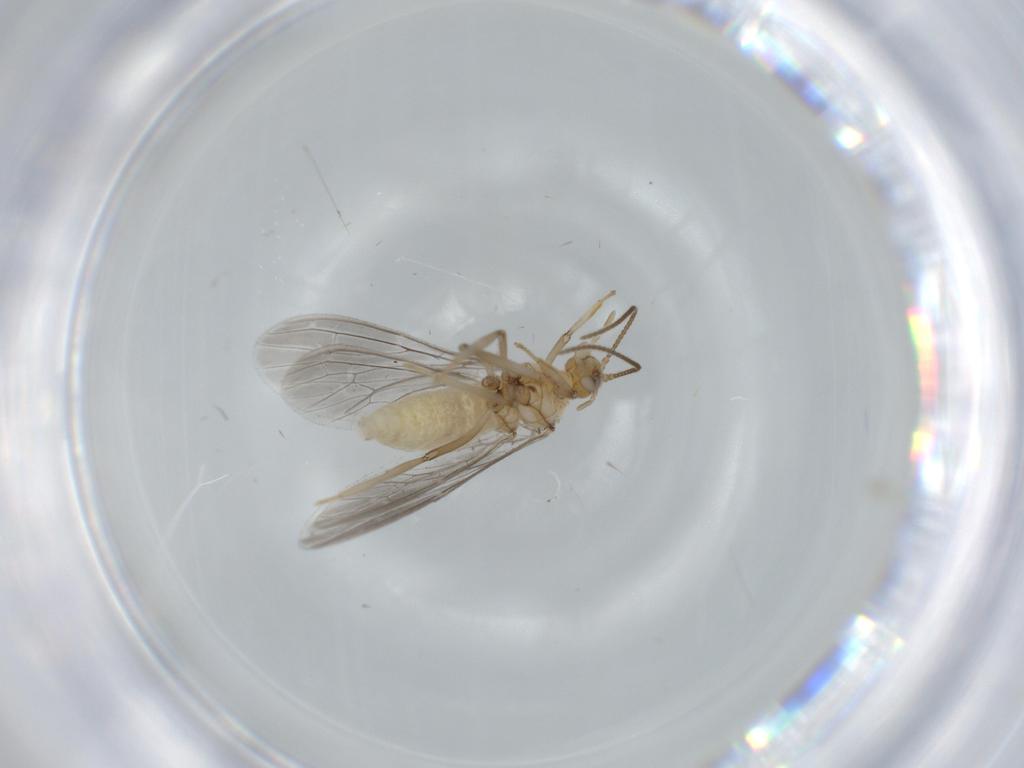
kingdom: Animalia
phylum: Arthropoda
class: Insecta
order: Neuroptera
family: Coniopterygidae
